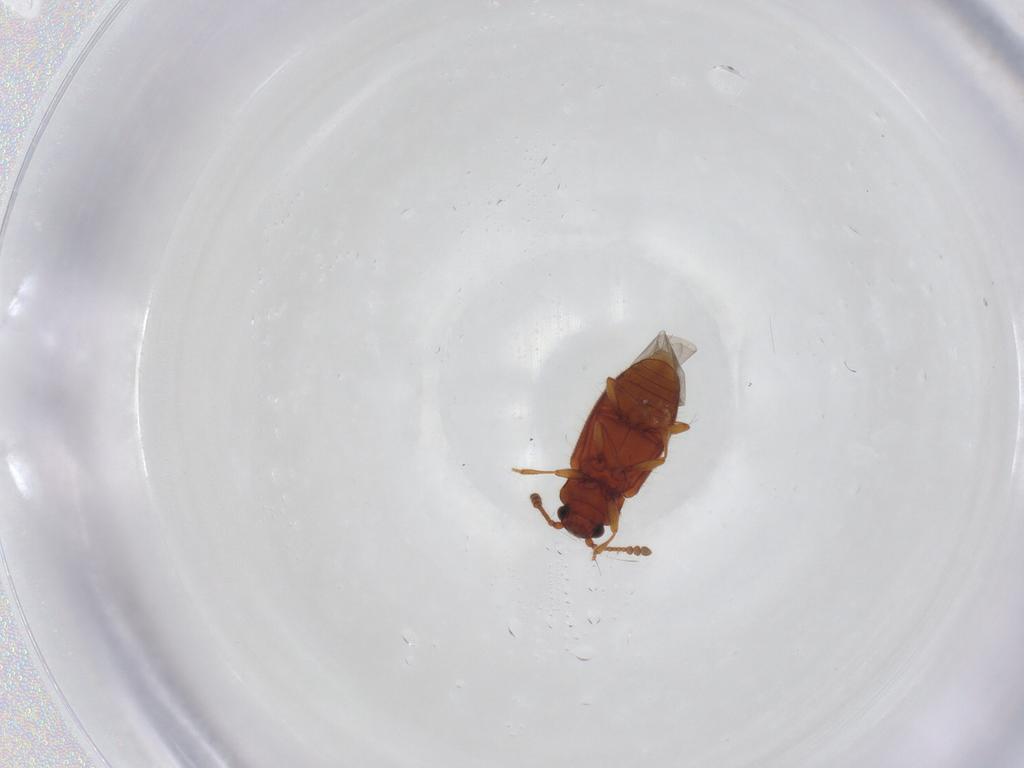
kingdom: Animalia
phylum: Arthropoda
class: Insecta
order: Coleoptera
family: Cryptophagidae
